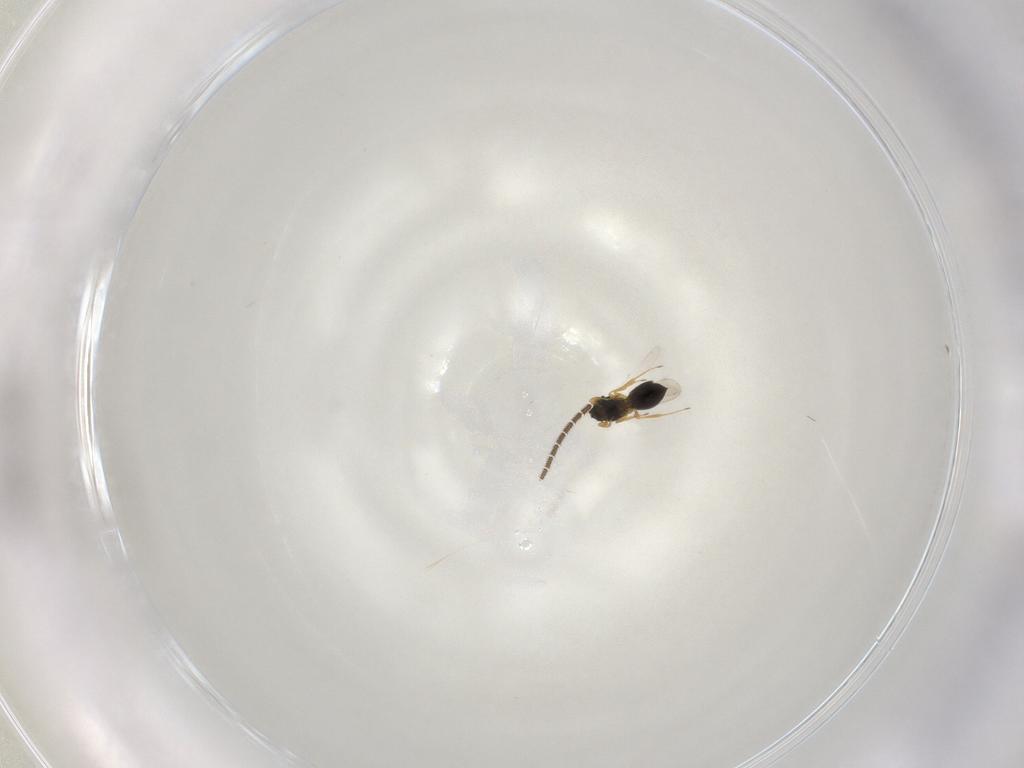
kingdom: Animalia
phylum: Arthropoda
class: Insecta
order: Hymenoptera
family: Scelionidae
